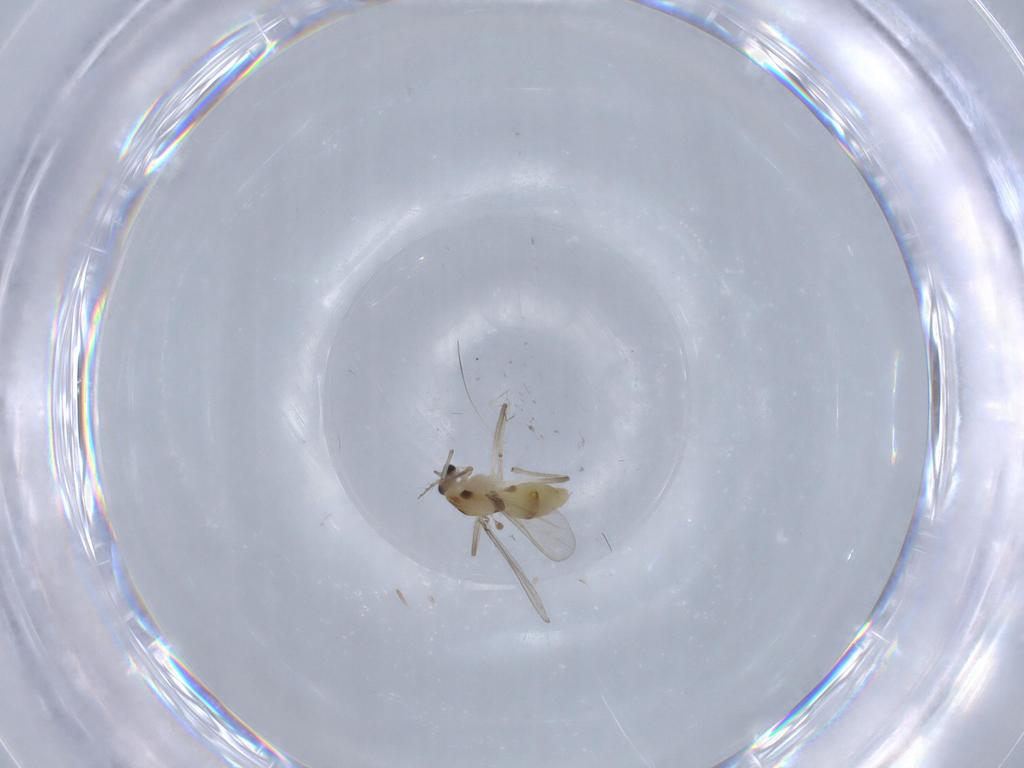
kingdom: Animalia
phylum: Arthropoda
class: Insecta
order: Diptera
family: Chironomidae
